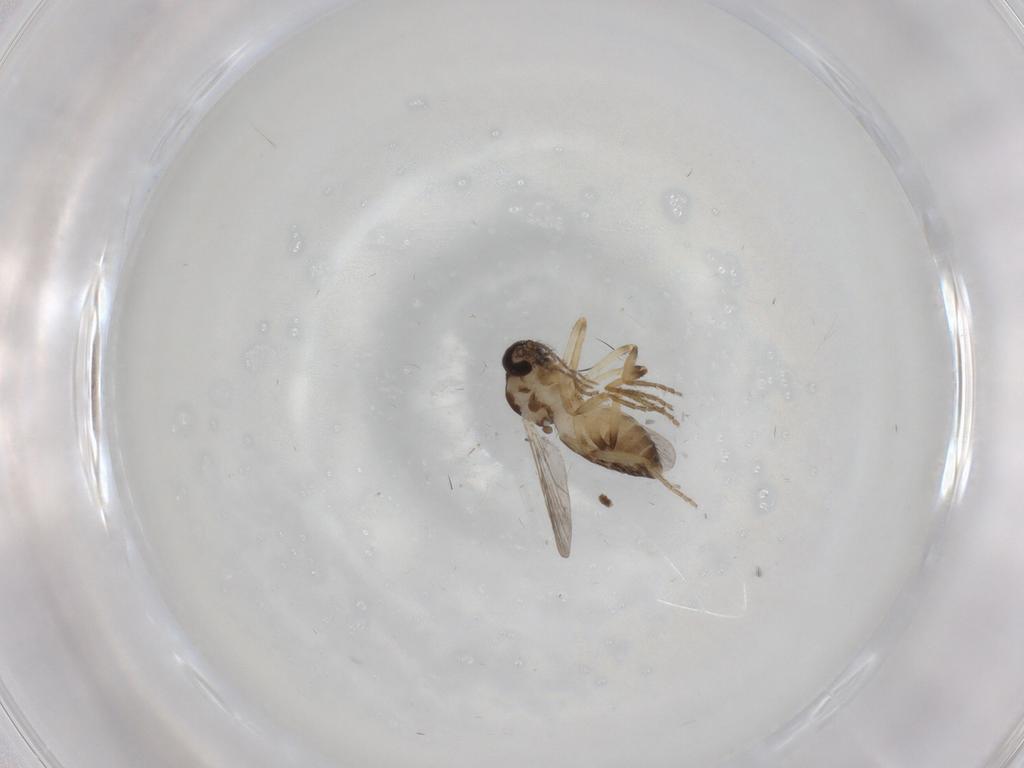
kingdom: Animalia
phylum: Arthropoda
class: Insecta
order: Diptera
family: Ceratopogonidae
